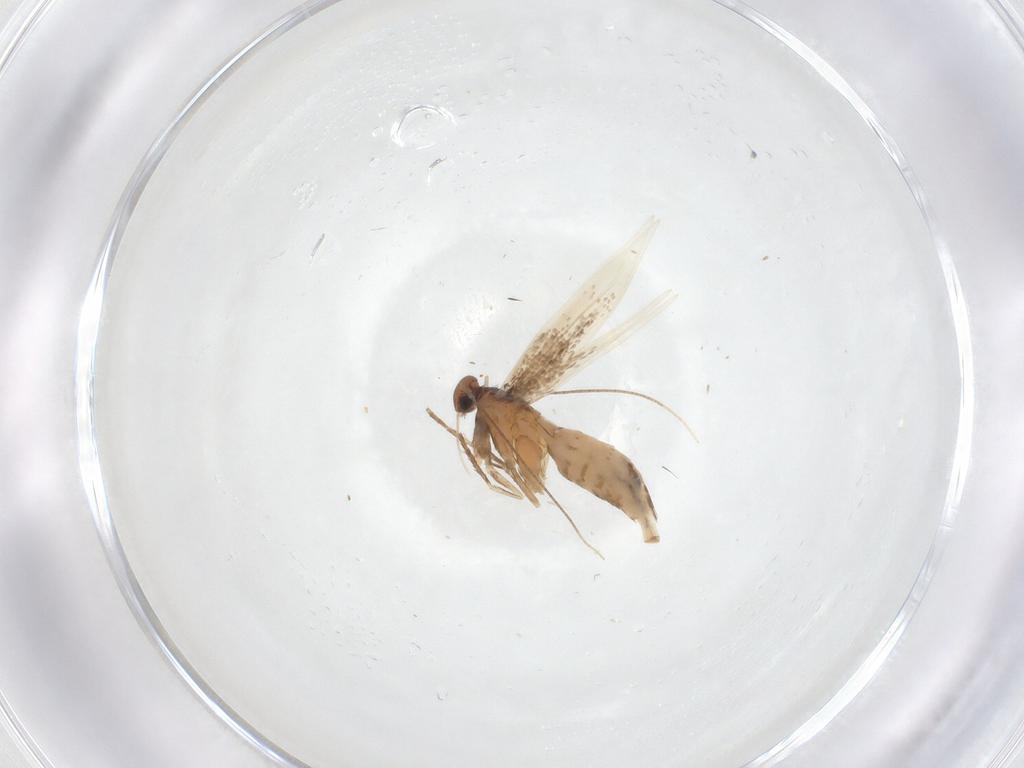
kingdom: Animalia
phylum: Arthropoda
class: Insecta
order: Lepidoptera
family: Gracillariidae
